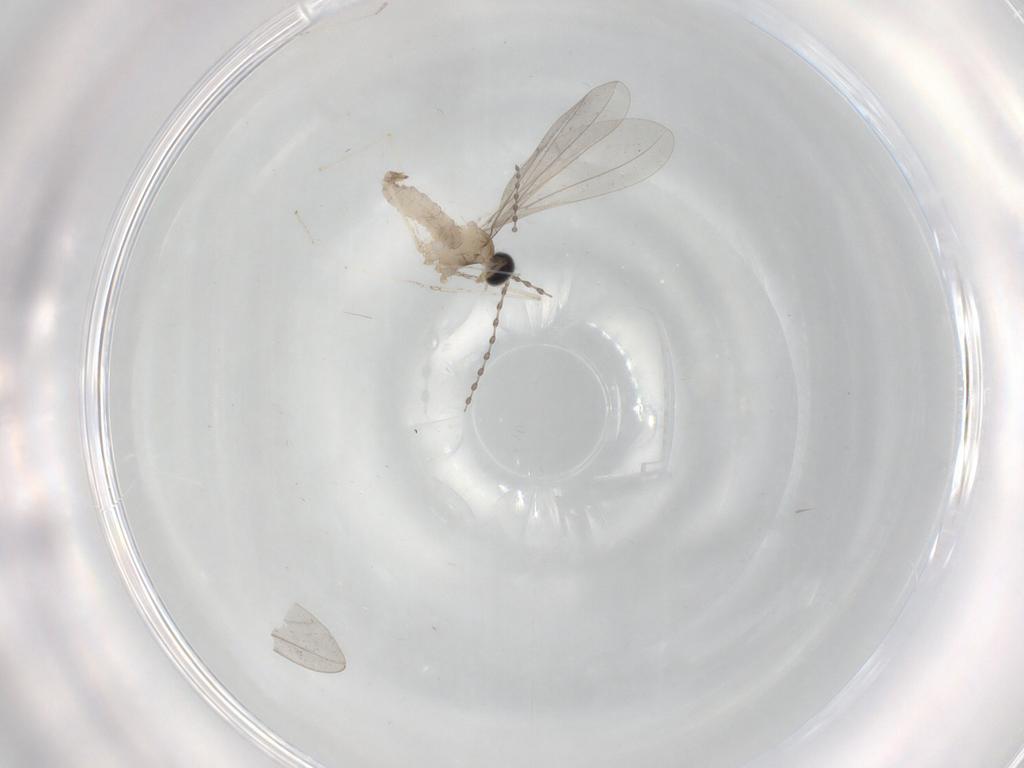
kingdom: Animalia
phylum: Arthropoda
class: Insecta
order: Diptera
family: Cecidomyiidae
